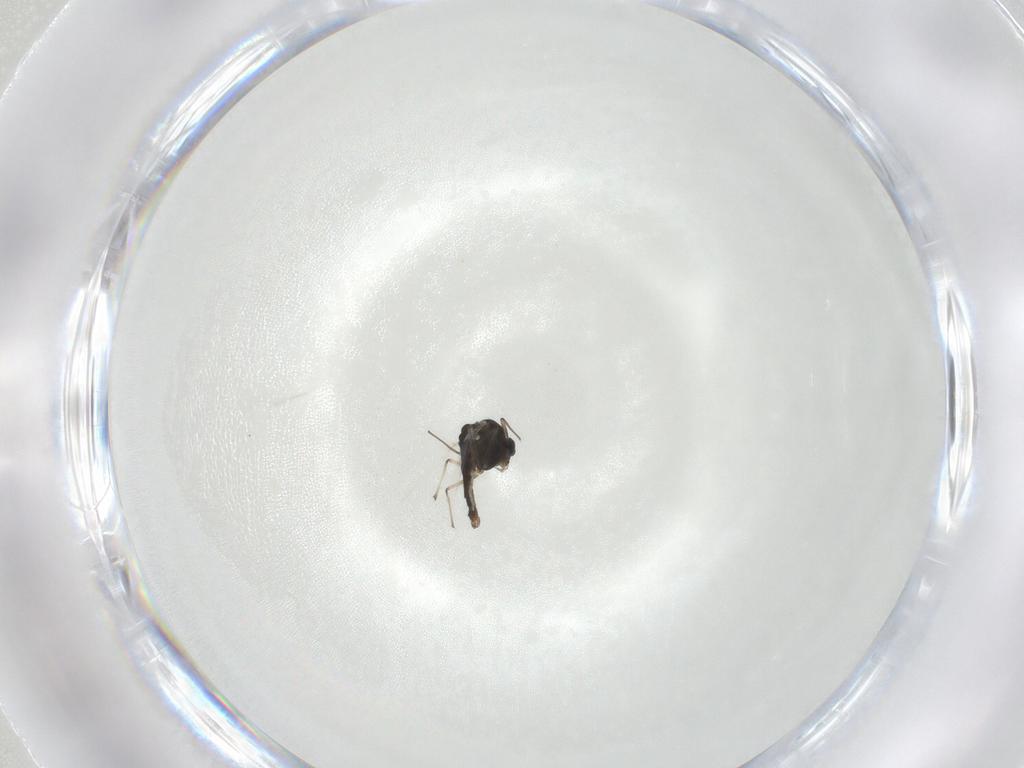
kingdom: Animalia
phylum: Arthropoda
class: Insecta
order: Diptera
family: Chironomidae
